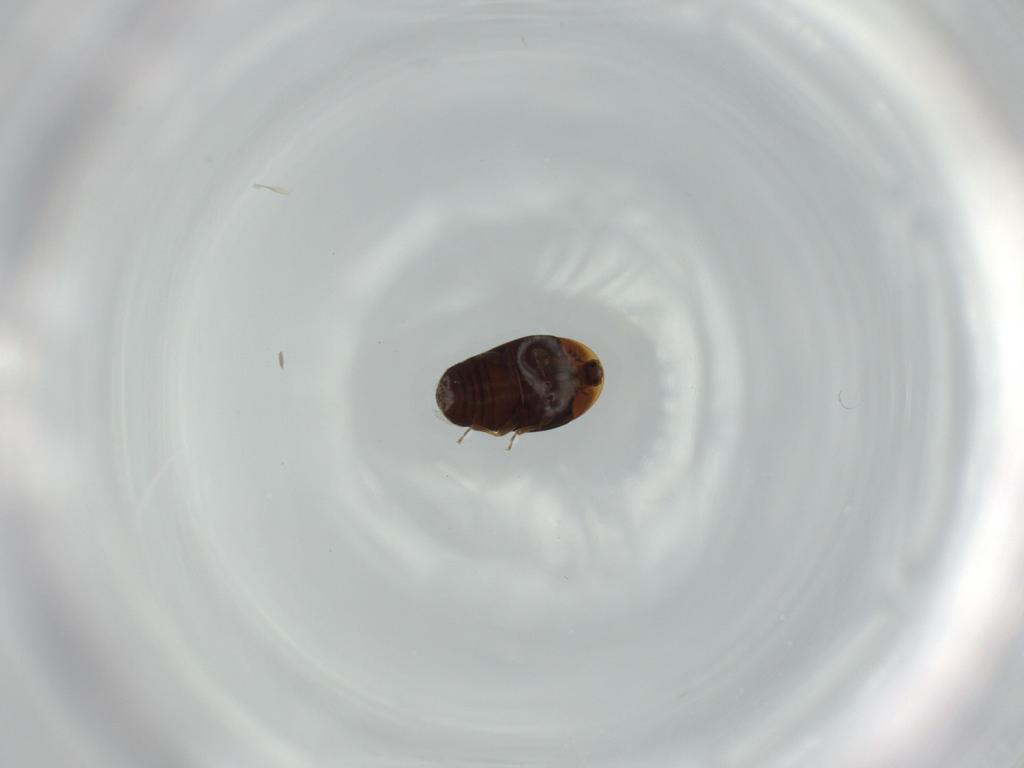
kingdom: Animalia
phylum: Arthropoda
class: Insecta
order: Coleoptera
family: Corylophidae
